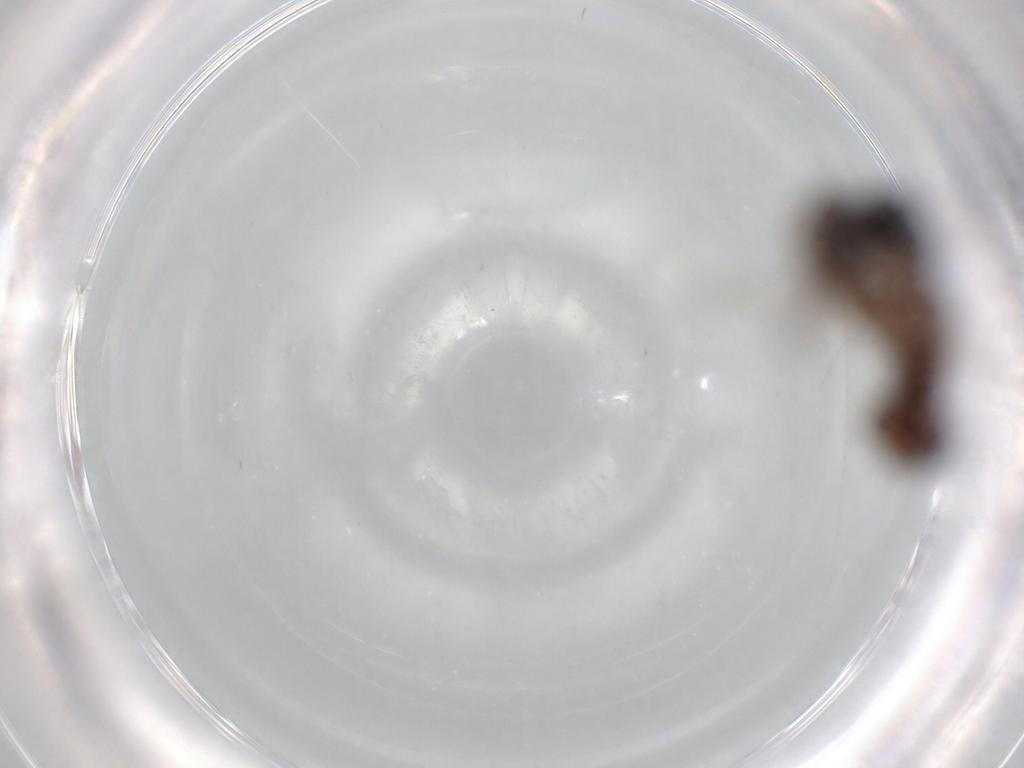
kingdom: Animalia
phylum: Arthropoda
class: Insecta
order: Hymenoptera
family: Ichneumonidae
